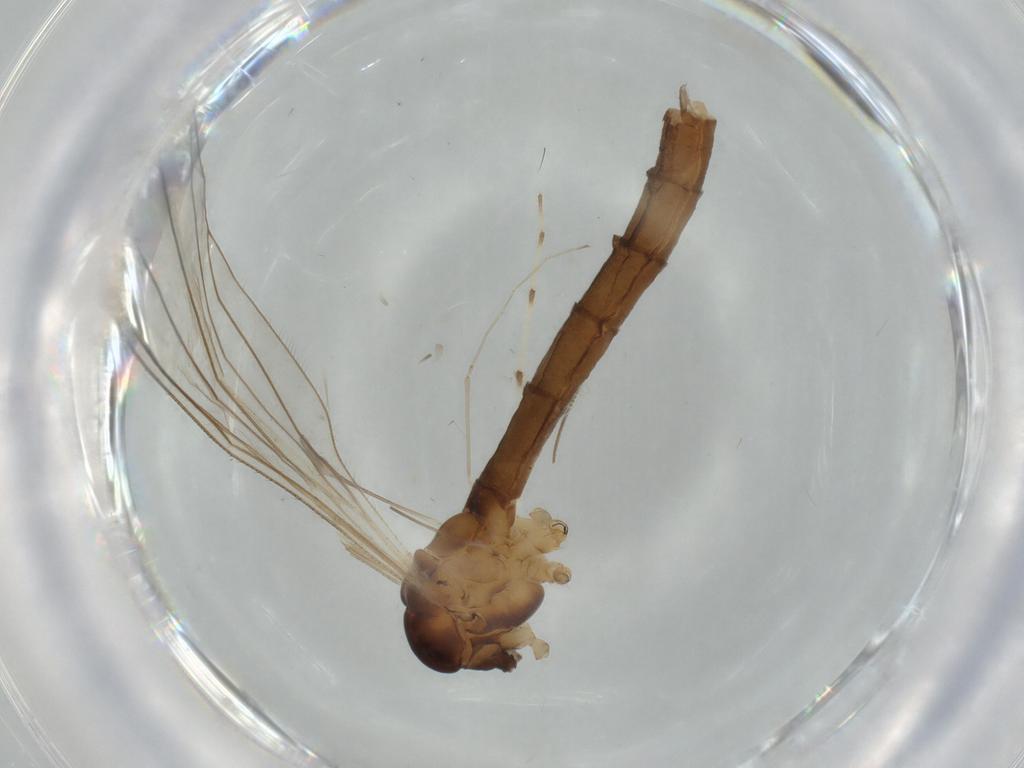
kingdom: Animalia
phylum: Arthropoda
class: Insecta
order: Diptera
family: Limoniidae
